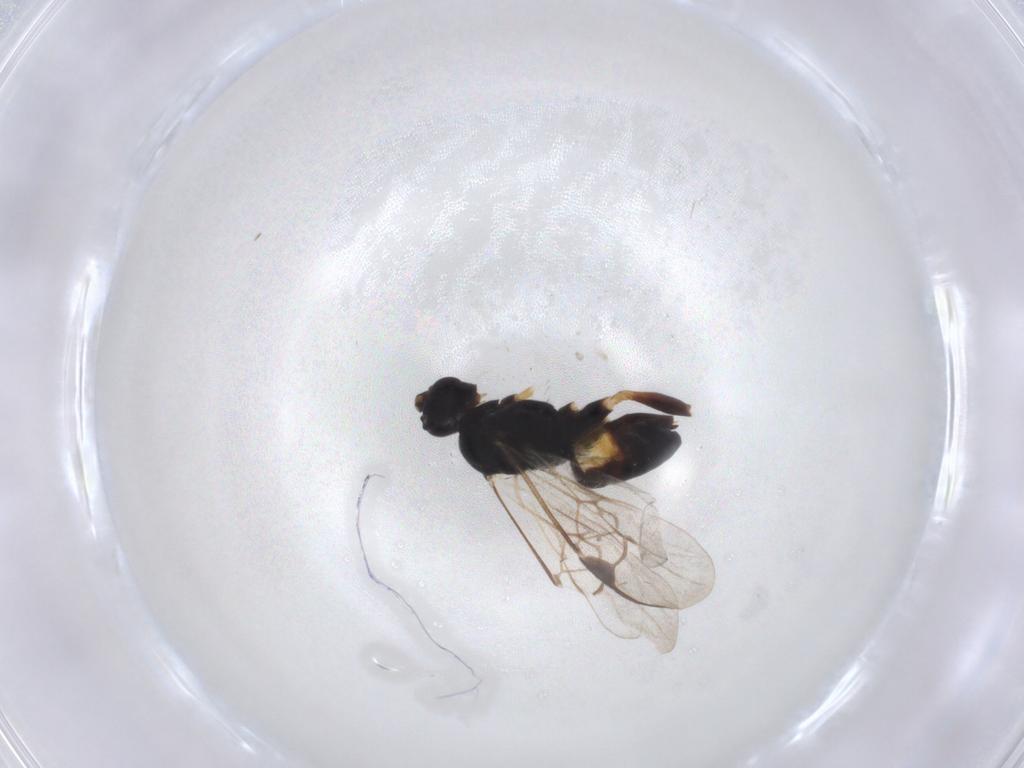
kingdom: Animalia
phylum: Arthropoda
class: Insecta
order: Hymenoptera
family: Braconidae
